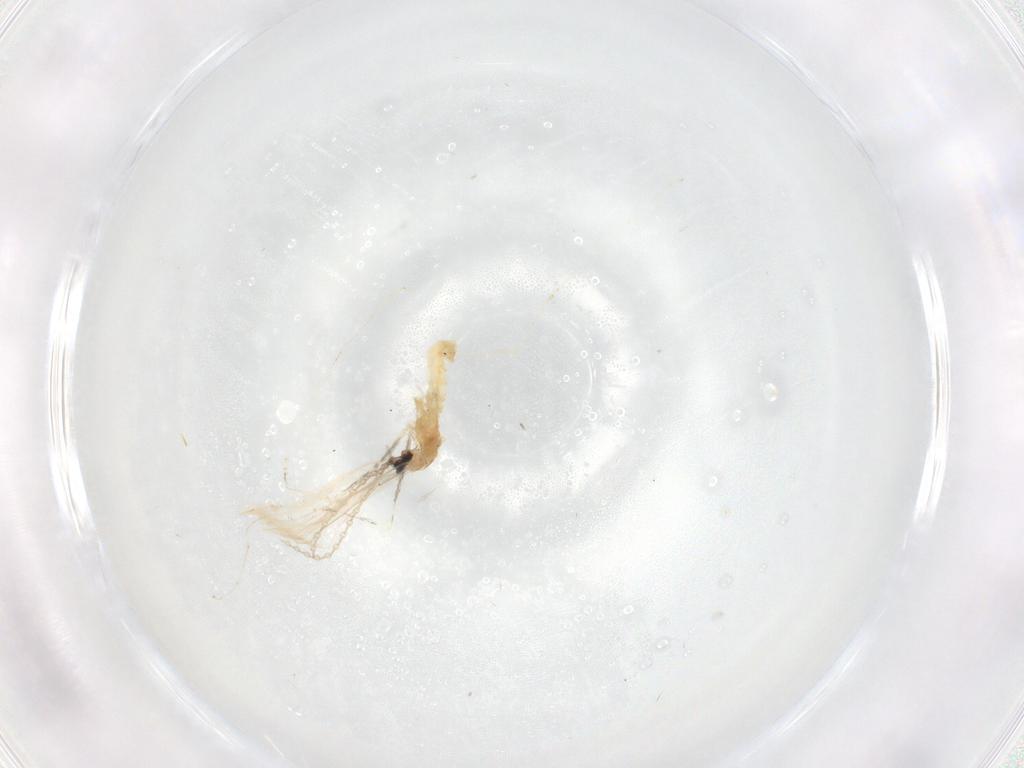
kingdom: Animalia
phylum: Arthropoda
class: Insecta
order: Diptera
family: Cecidomyiidae
